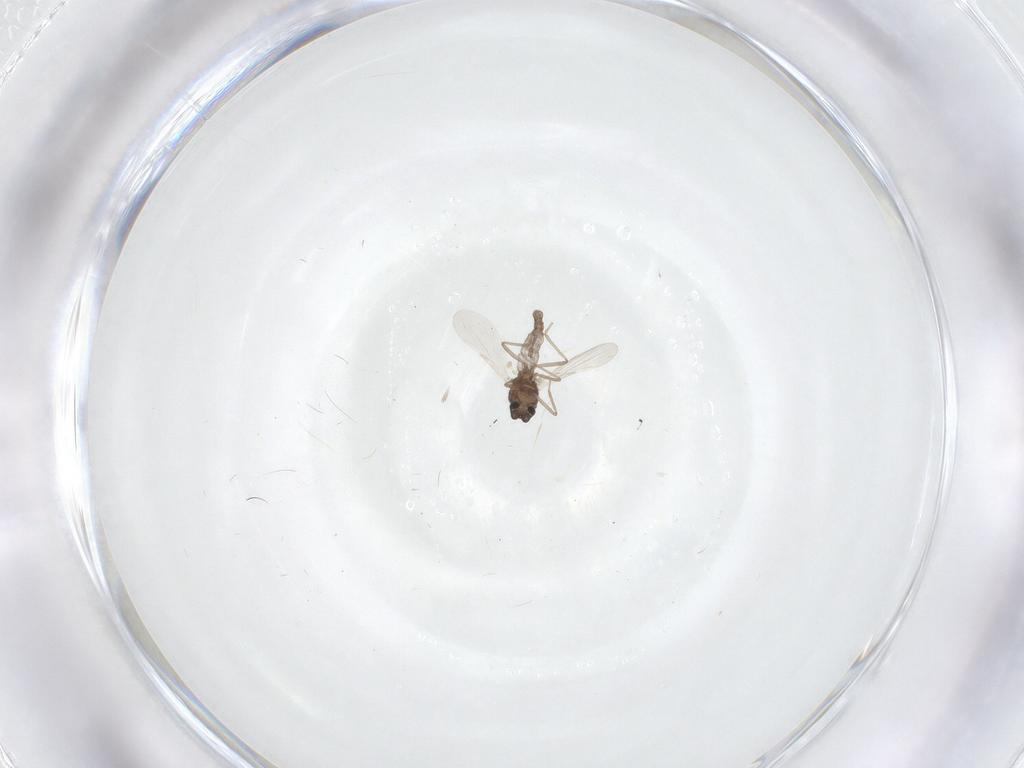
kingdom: Animalia
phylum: Arthropoda
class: Insecta
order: Diptera
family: Chironomidae
